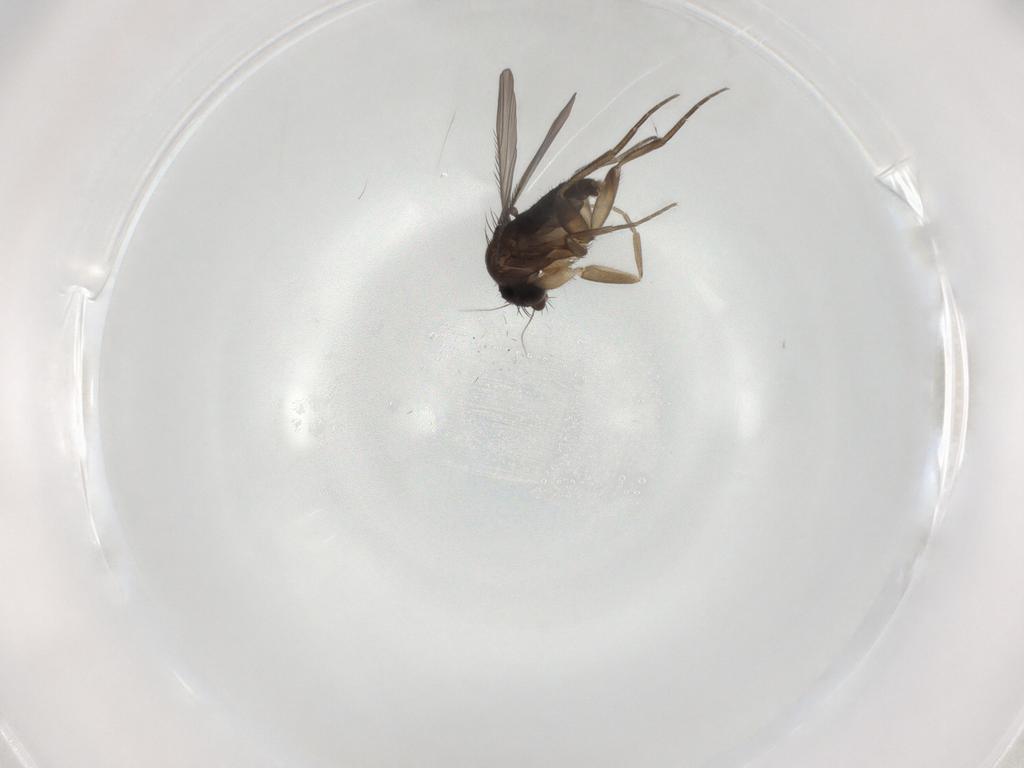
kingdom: Animalia
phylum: Arthropoda
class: Insecta
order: Diptera
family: Phoridae
